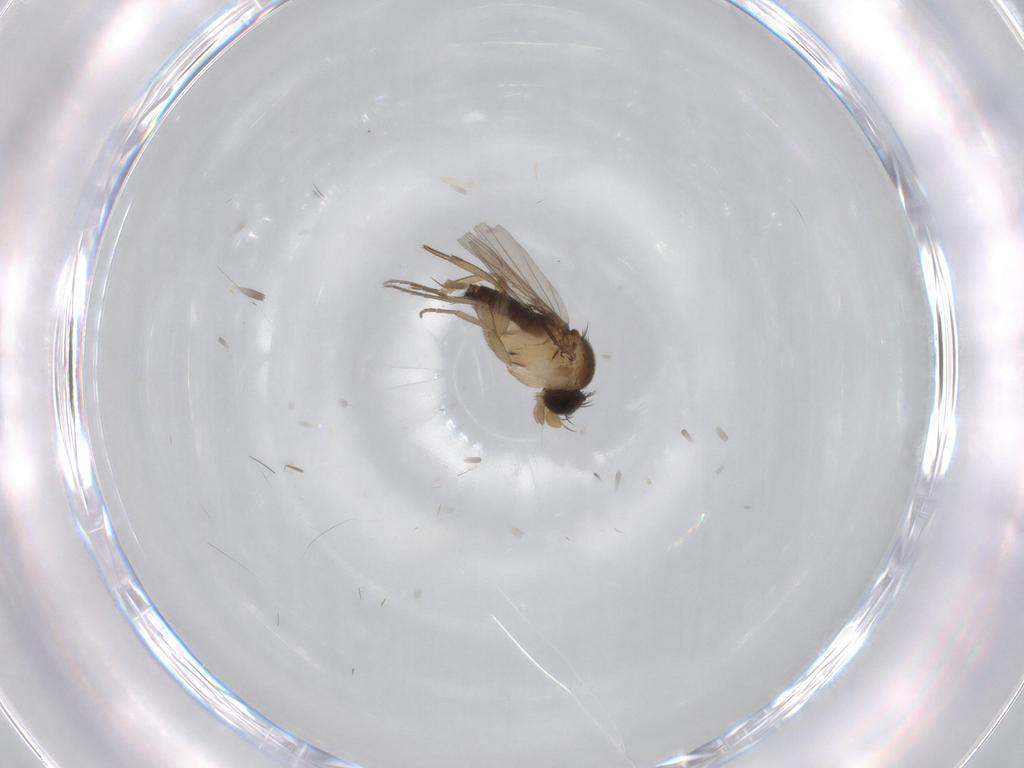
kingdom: Animalia
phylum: Arthropoda
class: Insecta
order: Diptera
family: Phoridae
